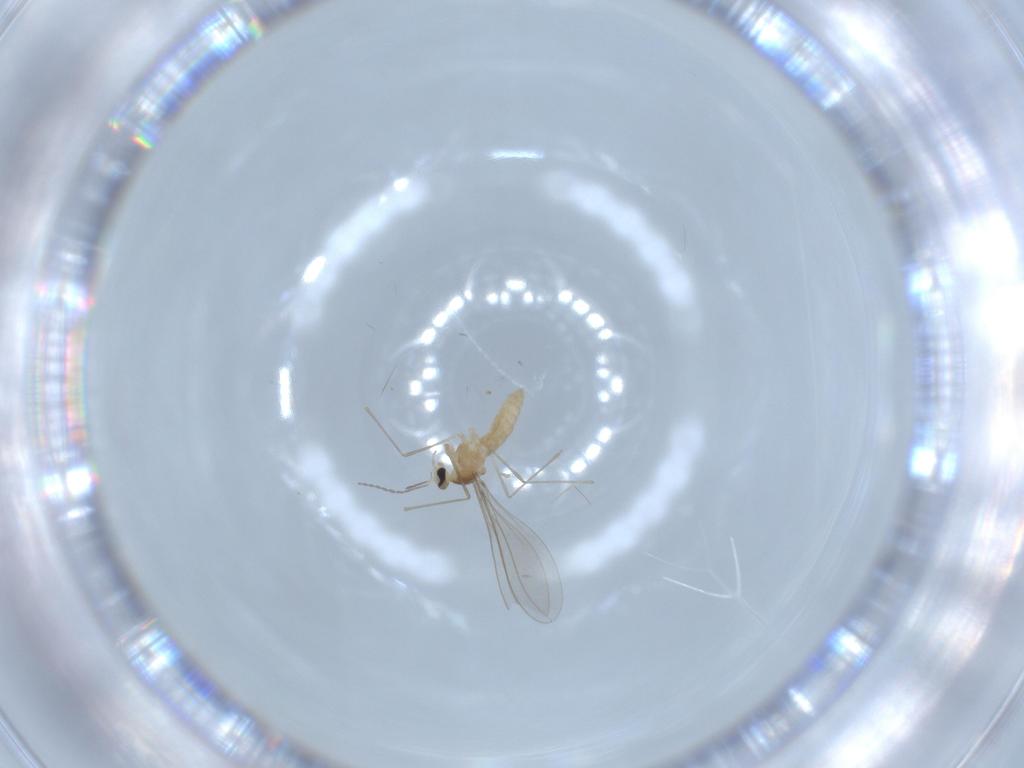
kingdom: Animalia
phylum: Arthropoda
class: Insecta
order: Diptera
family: Cecidomyiidae
